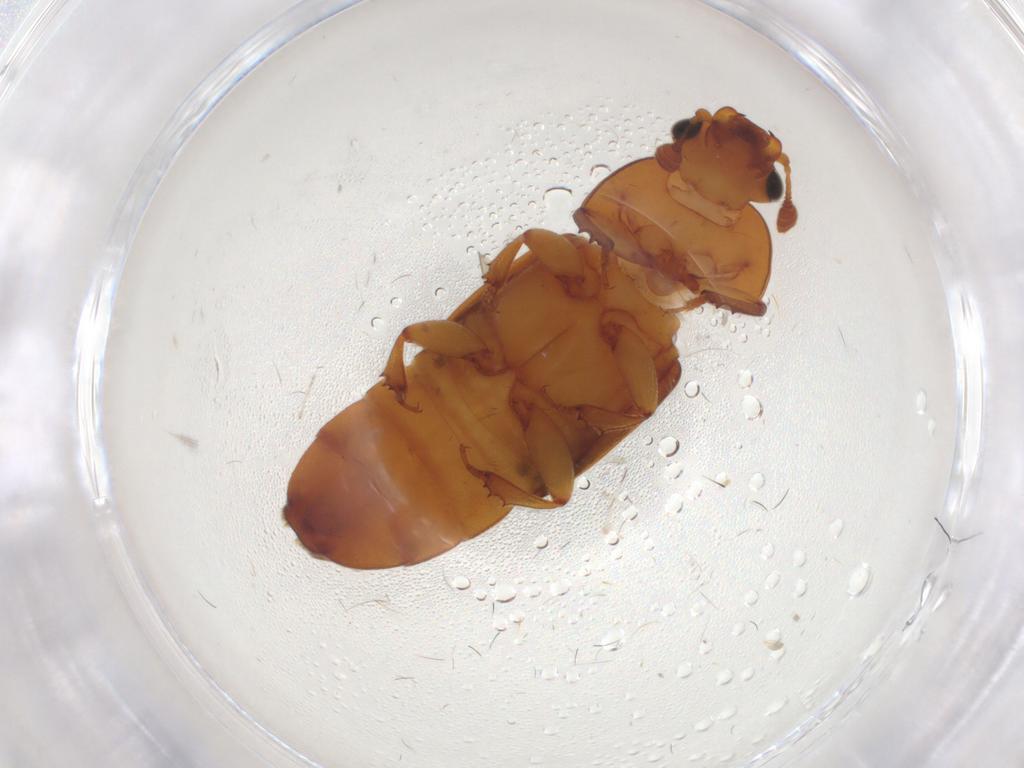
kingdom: Animalia
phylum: Arthropoda
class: Insecta
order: Coleoptera
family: Nitidulidae
